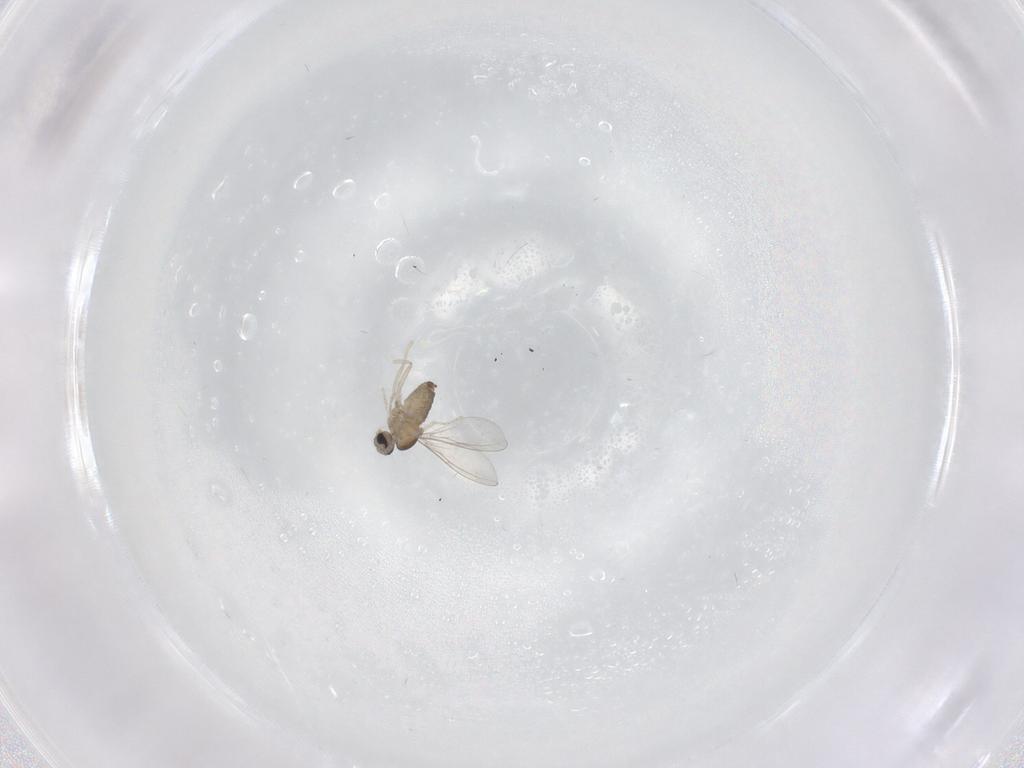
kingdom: Animalia
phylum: Arthropoda
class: Insecta
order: Diptera
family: Cecidomyiidae
